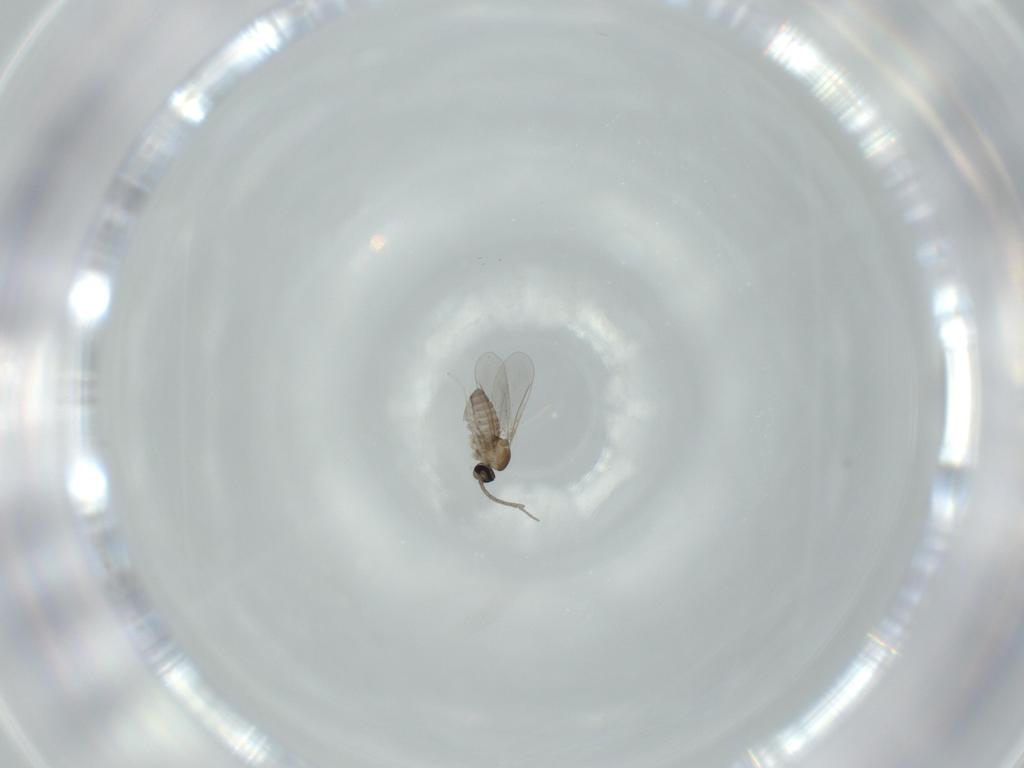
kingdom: Animalia
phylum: Arthropoda
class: Insecta
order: Diptera
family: Cecidomyiidae
